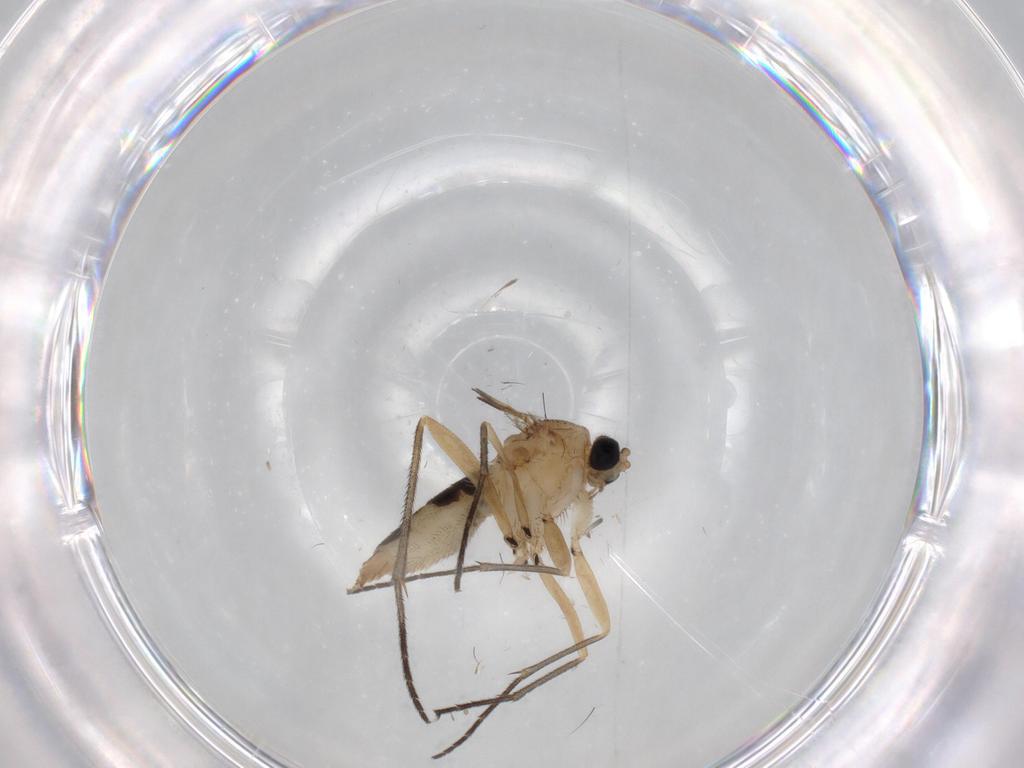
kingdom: Animalia
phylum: Arthropoda
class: Insecta
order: Diptera
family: Sciaridae
